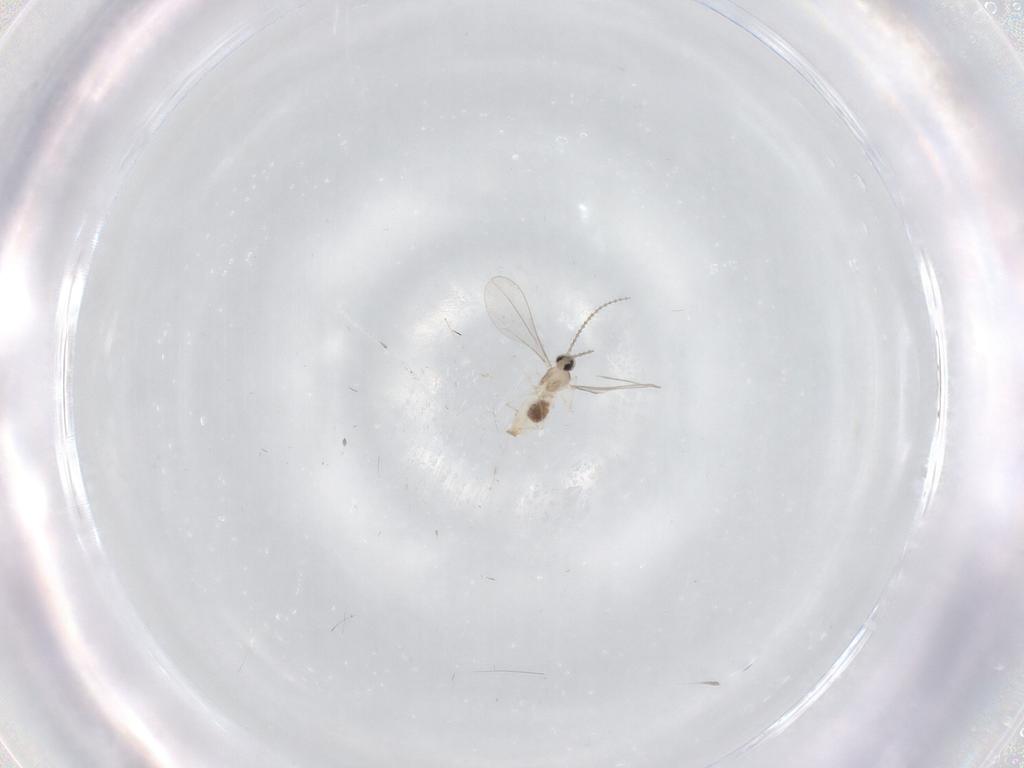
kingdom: Animalia
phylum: Arthropoda
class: Insecta
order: Diptera
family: Cecidomyiidae
